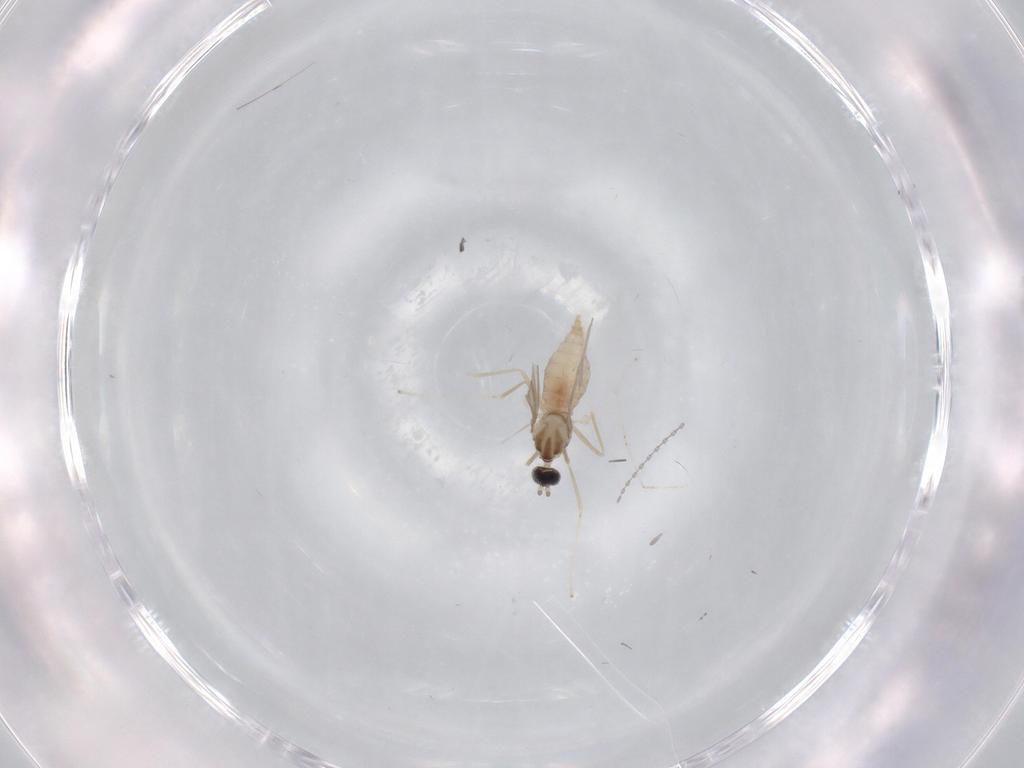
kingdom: Animalia
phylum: Arthropoda
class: Insecta
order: Diptera
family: Cecidomyiidae
